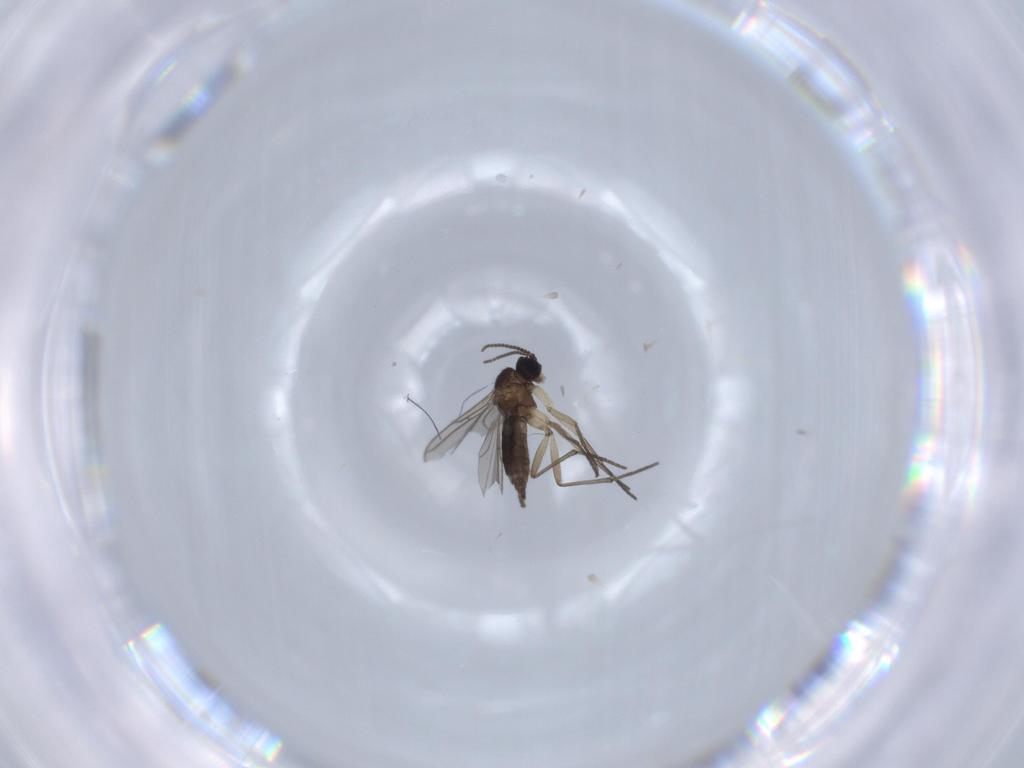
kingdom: Animalia
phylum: Arthropoda
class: Insecta
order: Diptera
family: Sciaridae
